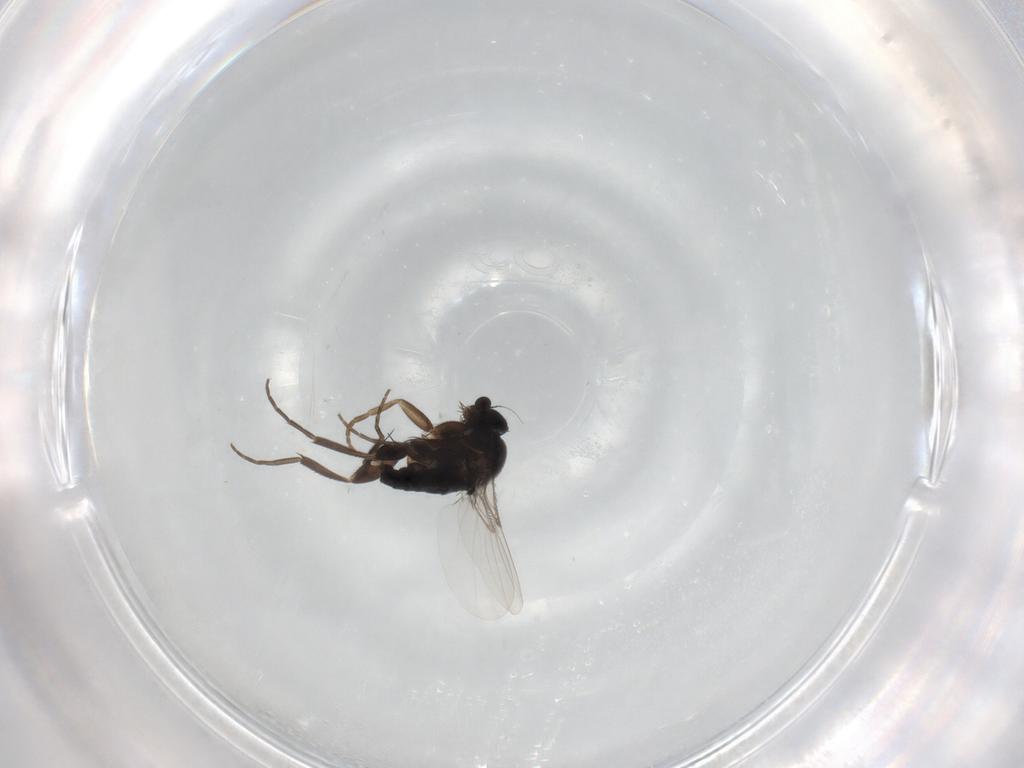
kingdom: Animalia
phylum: Arthropoda
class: Insecta
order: Diptera
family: Phoridae
